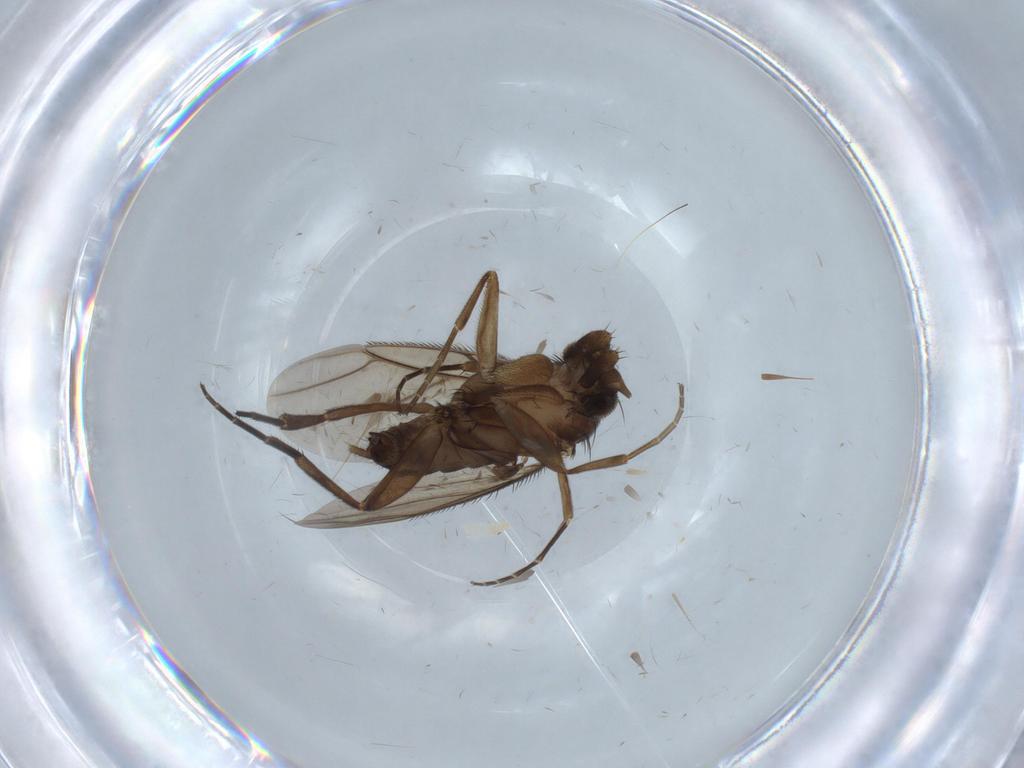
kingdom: Animalia
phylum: Arthropoda
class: Insecta
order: Diptera
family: Phoridae
